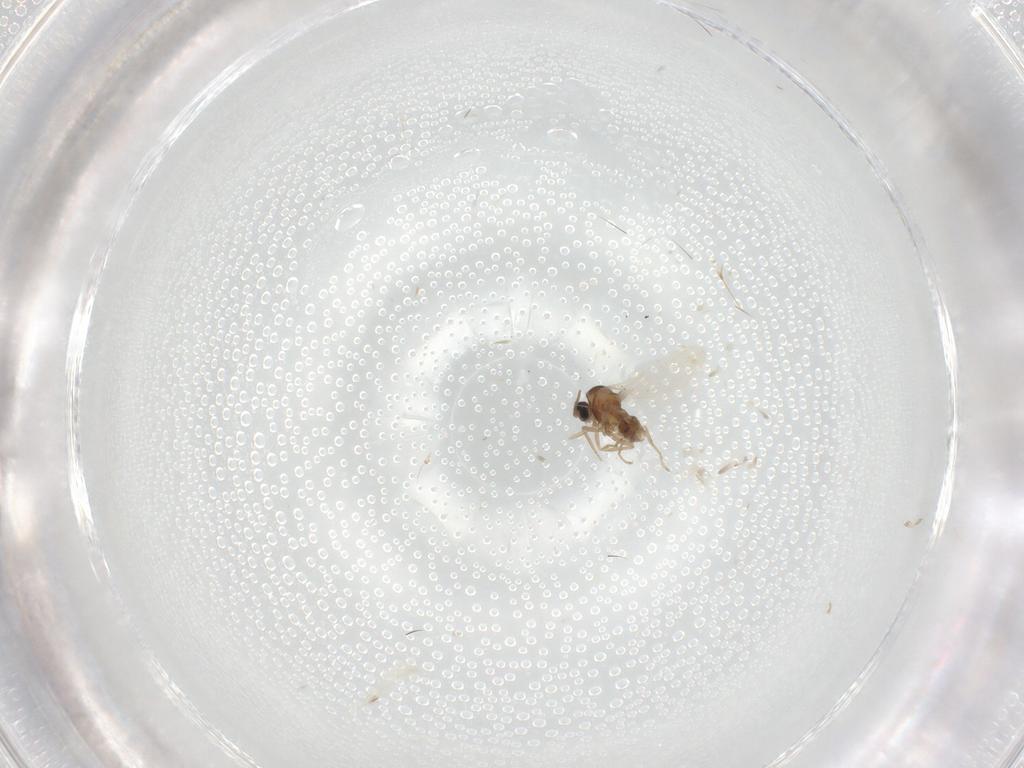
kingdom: Animalia
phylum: Arthropoda
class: Insecta
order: Diptera
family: Cecidomyiidae
